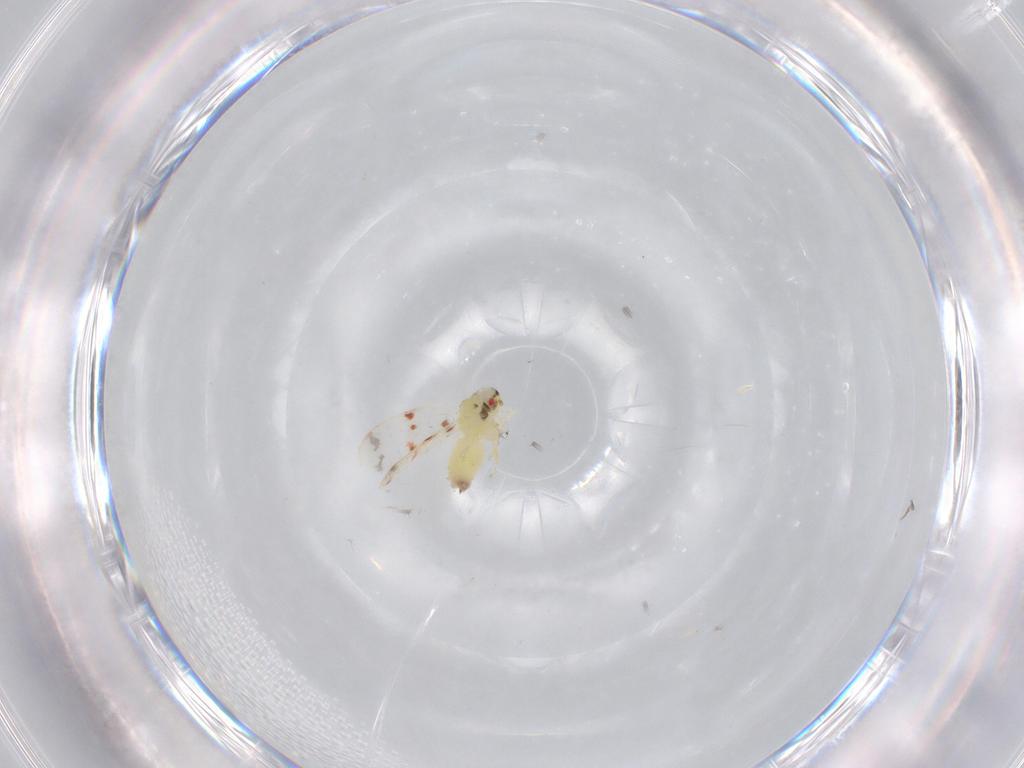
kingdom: Animalia
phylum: Arthropoda
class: Insecta
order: Hemiptera
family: Aleyrodidae
